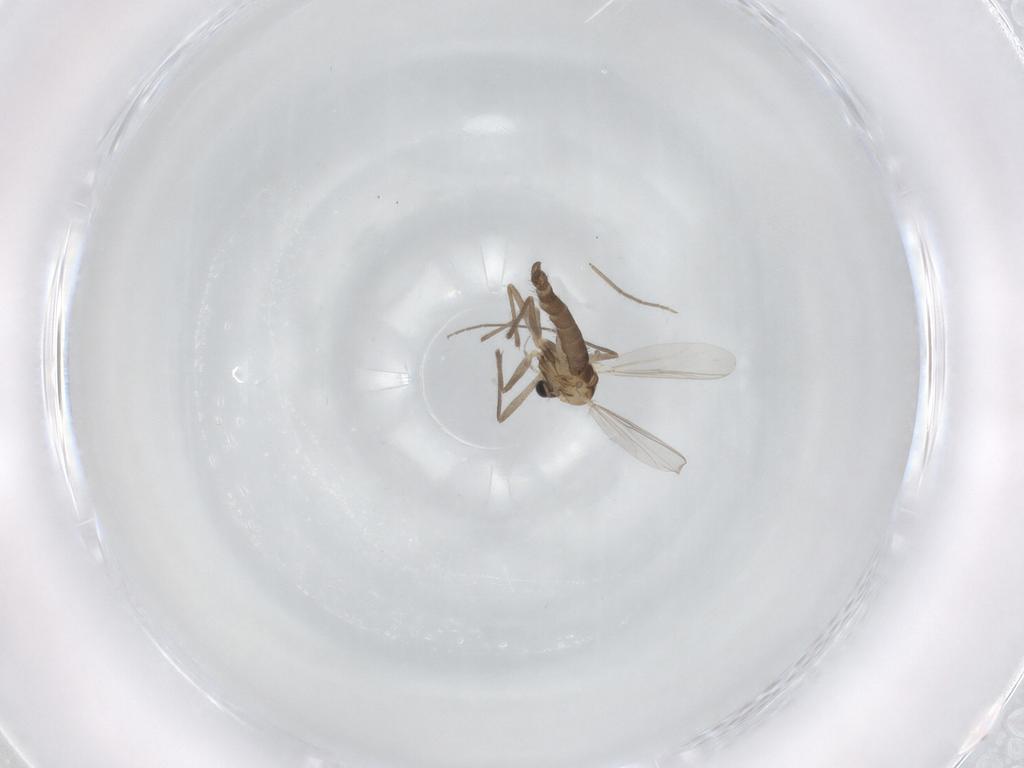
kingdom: Animalia
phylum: Arthropoda
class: Insecta
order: Diptera
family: Chironomidae
